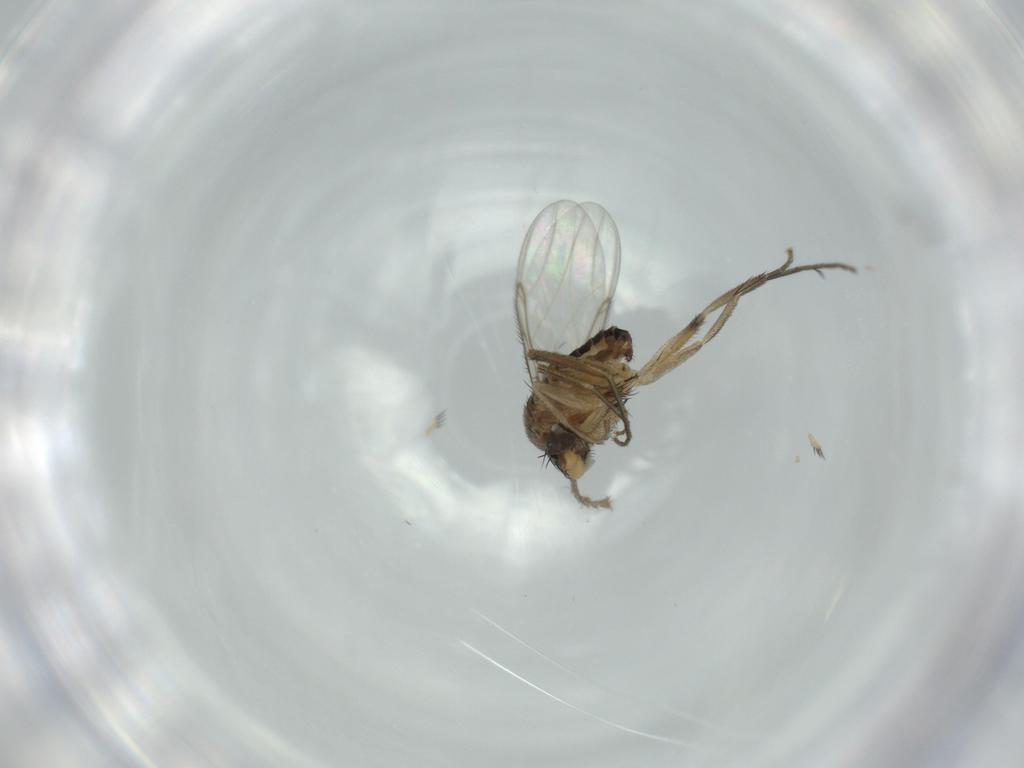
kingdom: Animalia
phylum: Arthropoda
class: Insecta
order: Diptera
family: Phoridae
